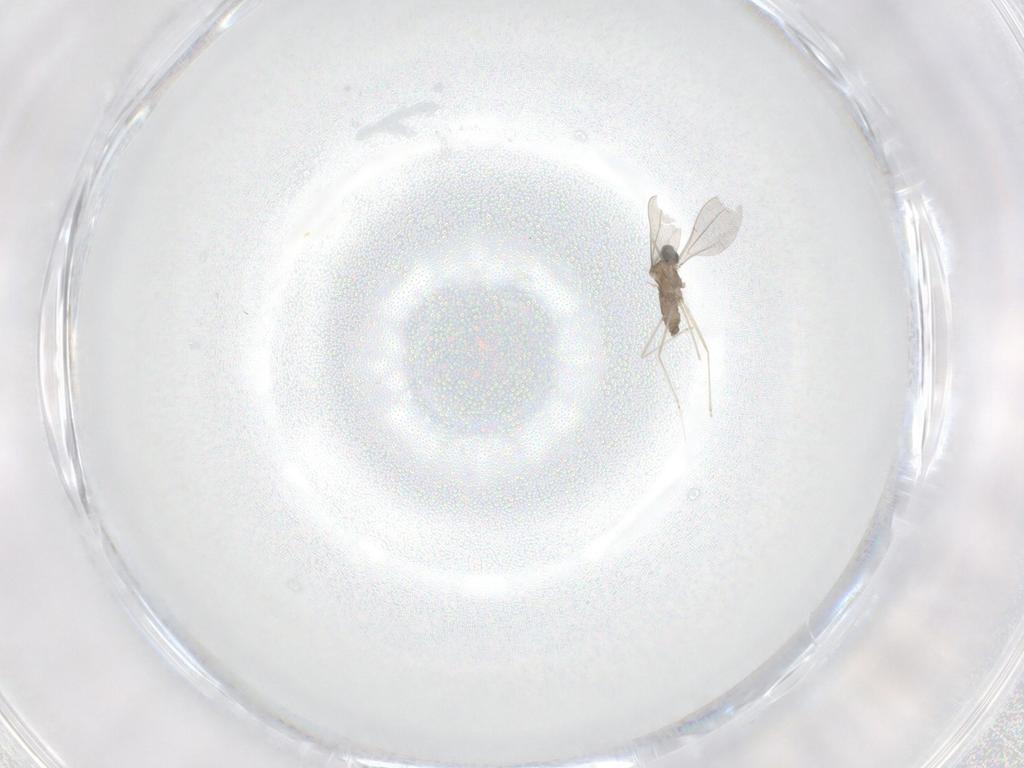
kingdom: Animalia
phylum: Arthropoda
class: Insecta
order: Diptera
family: Cecidomyiidae
